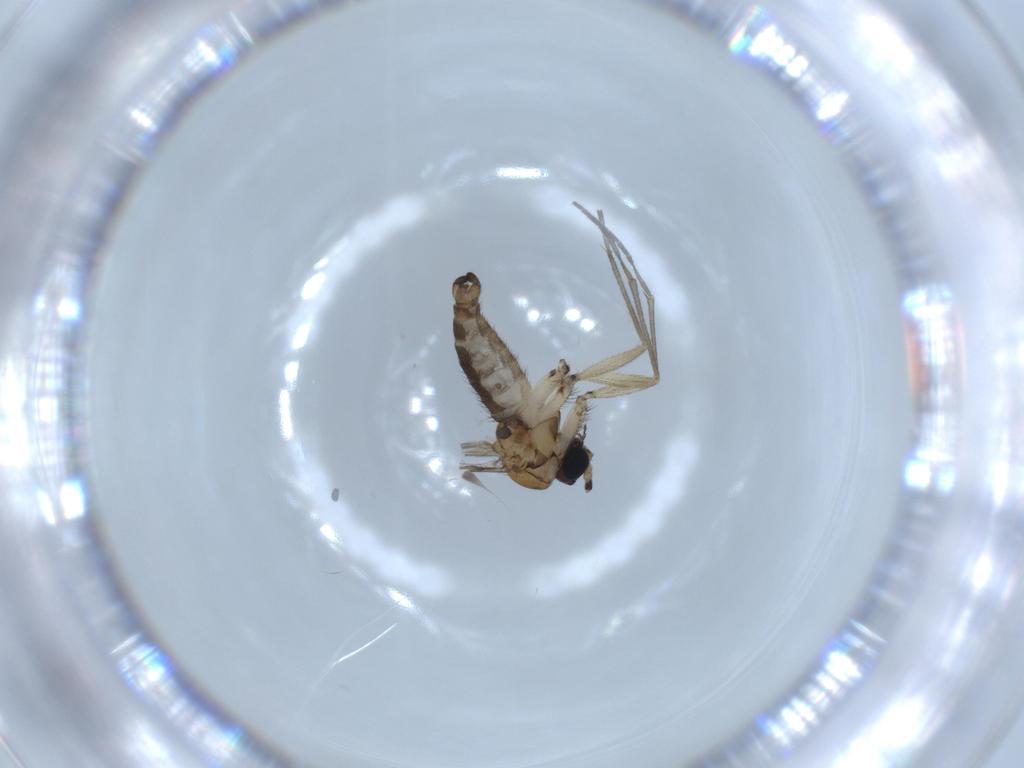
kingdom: Animalia
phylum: Arthropoda
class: Insecta
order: Diptera
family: Sciaridae
